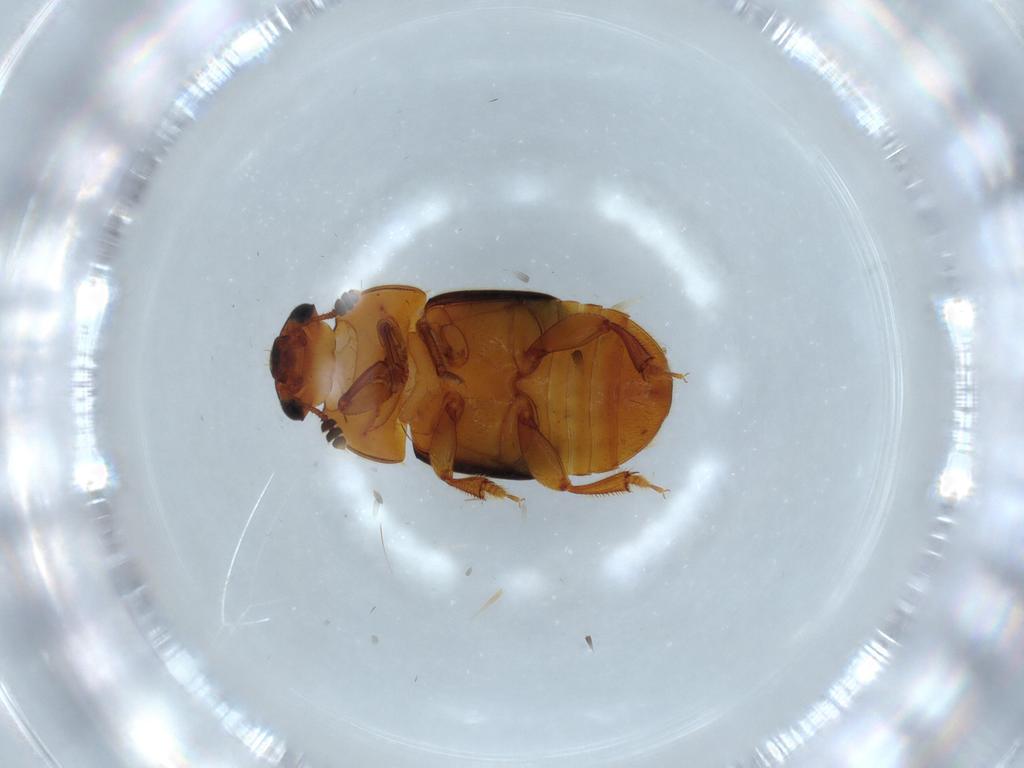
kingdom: Animalia
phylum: Arthropoda
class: Insecta
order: Coleoptera
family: Nitidulidae
